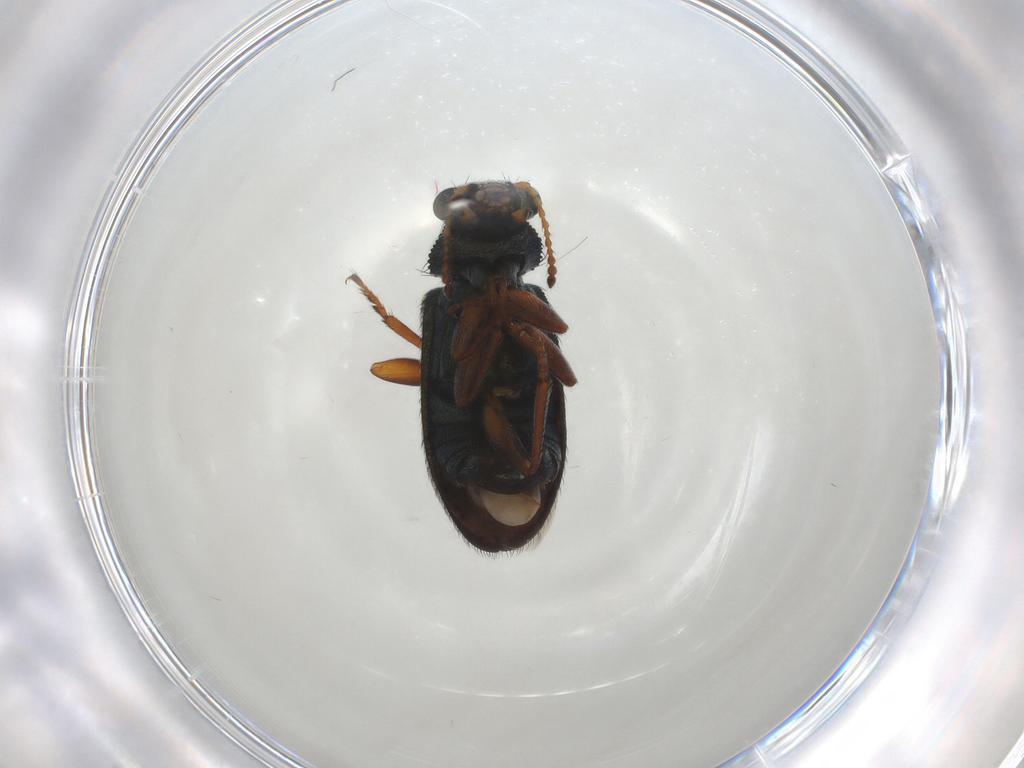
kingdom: Animalia
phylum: Arthropoda
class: Insecta
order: Coleoptera
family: Melyridae
